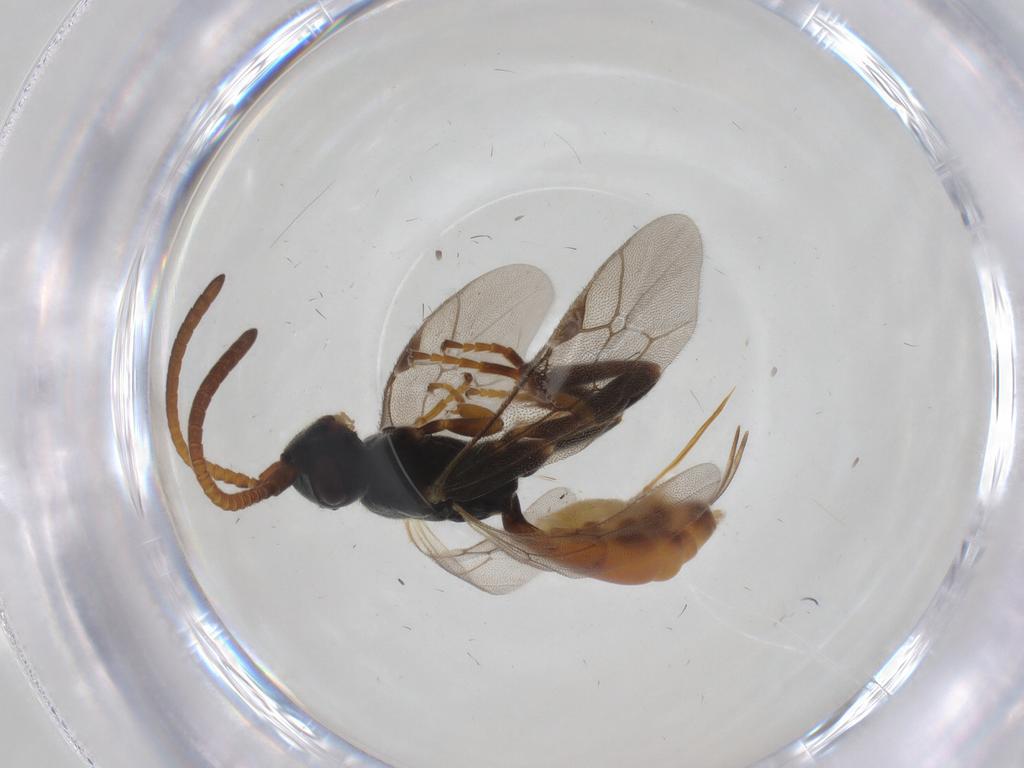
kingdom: Animalia
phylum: Arthropoda
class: Insecta
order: Hymenoptera
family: Ichneumonidae
